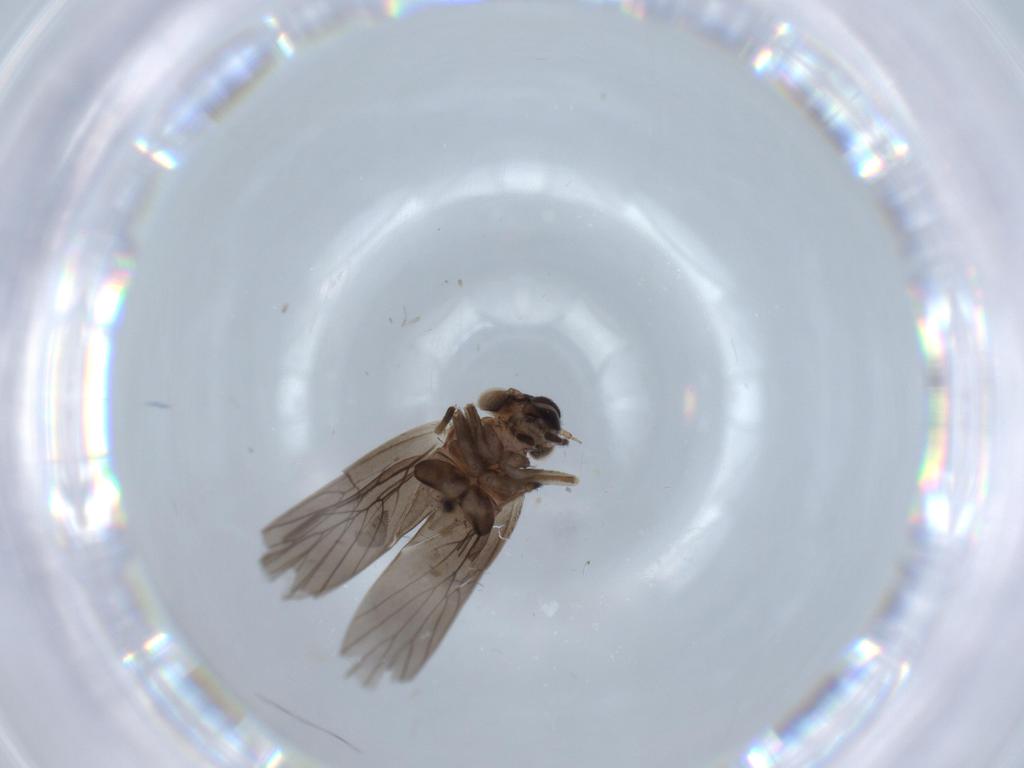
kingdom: Animalia
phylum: Arthropoda
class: Insecta
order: Psocodea
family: Lepidopsocidae
